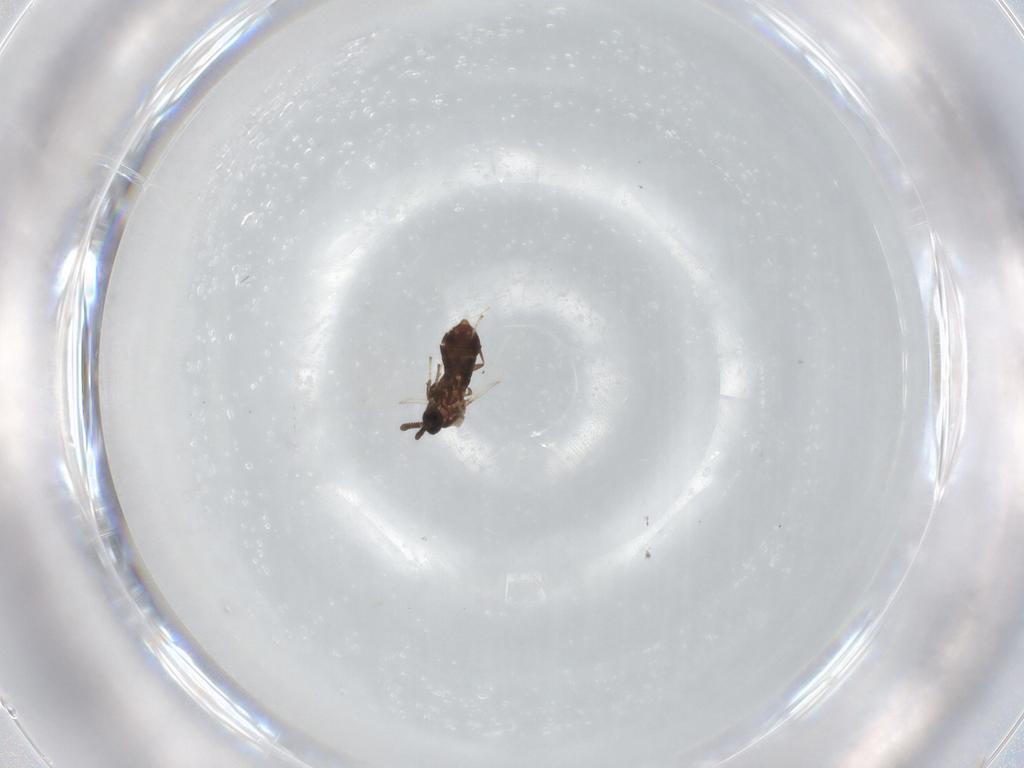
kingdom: Animalia
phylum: Arthropoda
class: Insecta
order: Diptera
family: Scatopsidae
